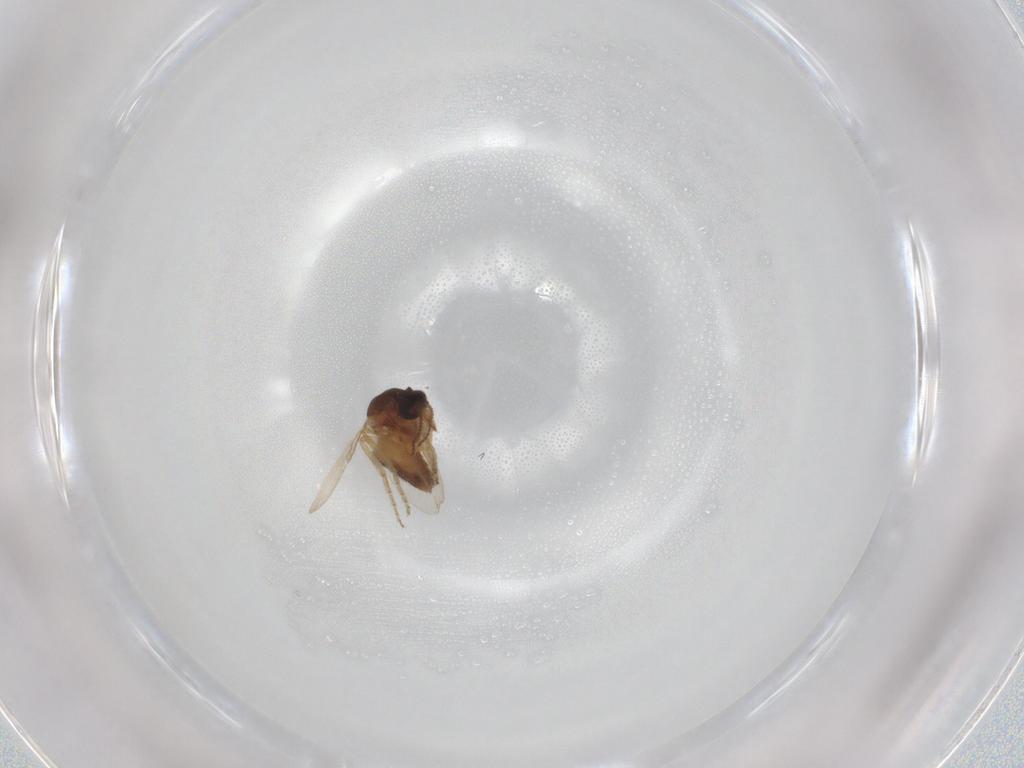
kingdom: Animalia
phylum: Arthropoda
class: Insecta
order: Diptera
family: Ceratopogonidae
